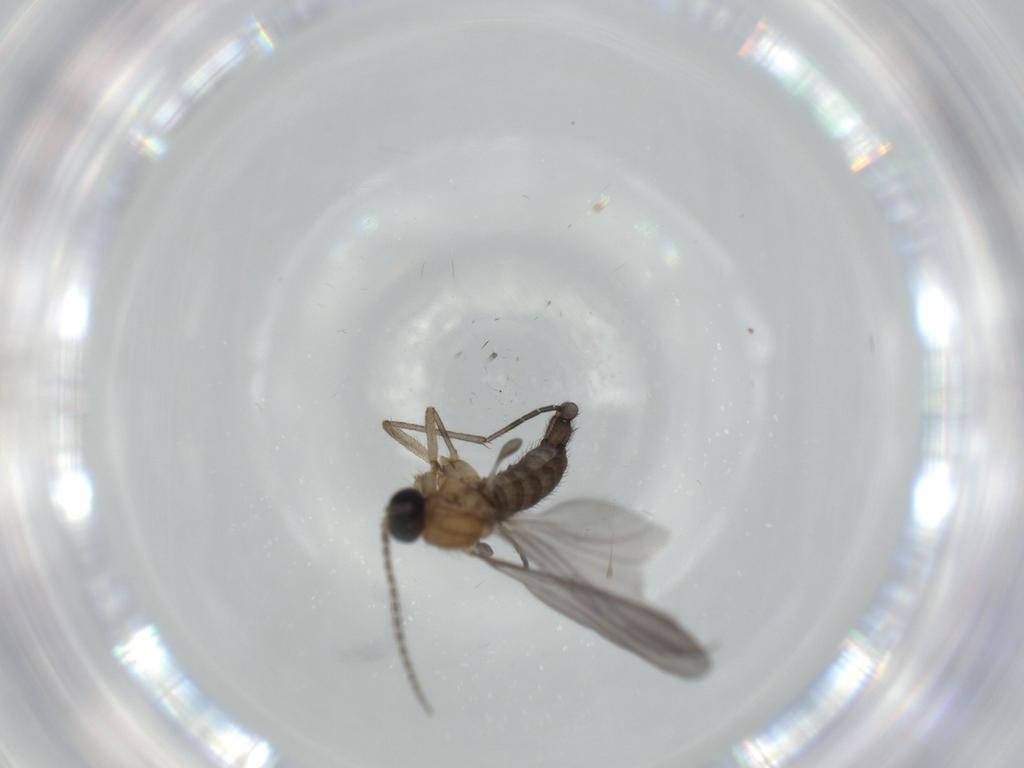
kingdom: Animalia
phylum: Arthropoda
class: Insecta
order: Diptera
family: Sciaridae
